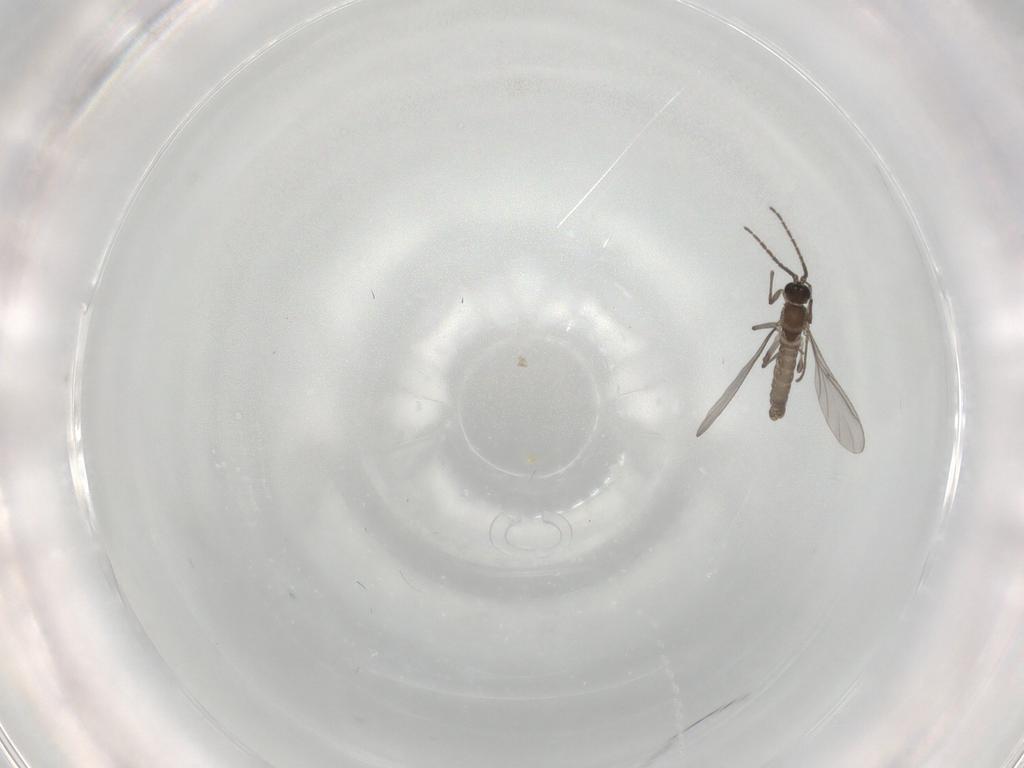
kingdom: Animalia
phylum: Arthropoda
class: Insecta
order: Diptera
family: Sciaridae
